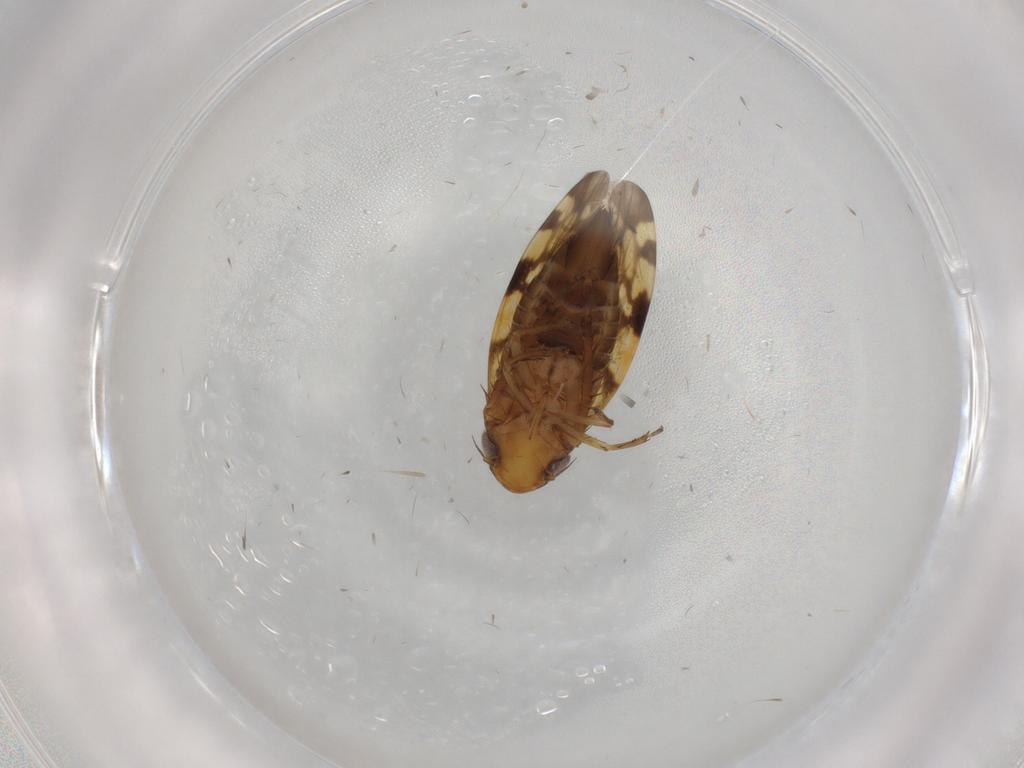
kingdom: Animalia
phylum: Arthropoda
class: Insecta
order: Hemiptera
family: Cicadellidae
